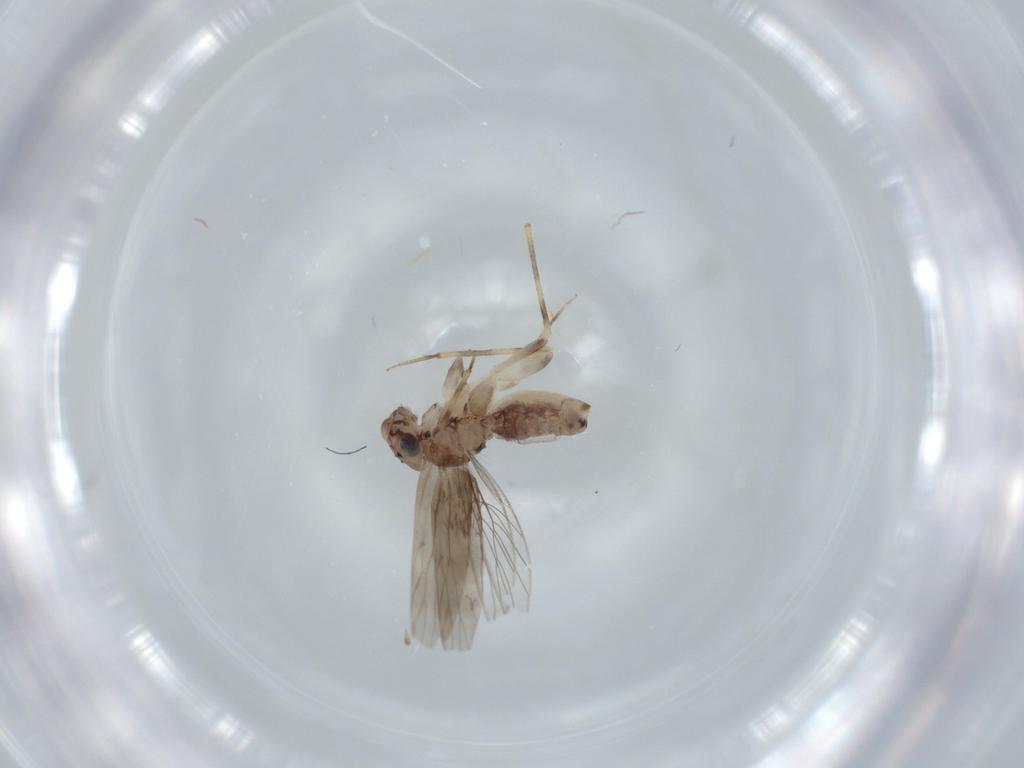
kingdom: Animalia
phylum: Arthropoda
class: Insecta
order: Psocodea
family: Lepidopsocidae
